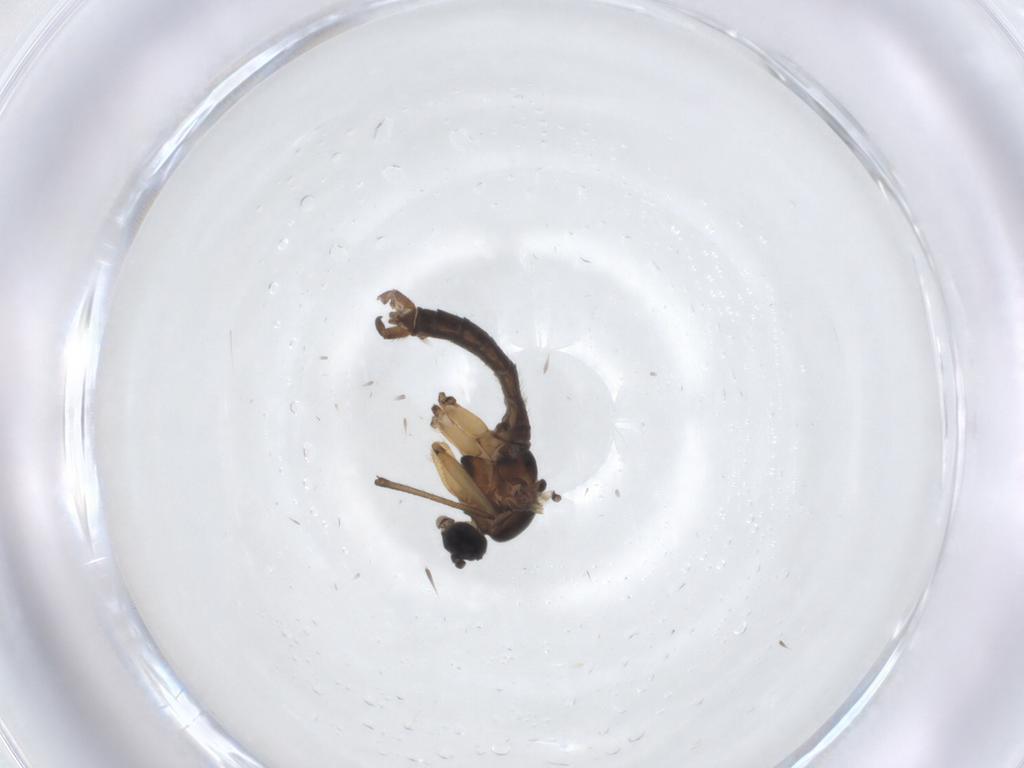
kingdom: Animalia
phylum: Arthropoda
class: Insecta
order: Diptera
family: Sciaridae
